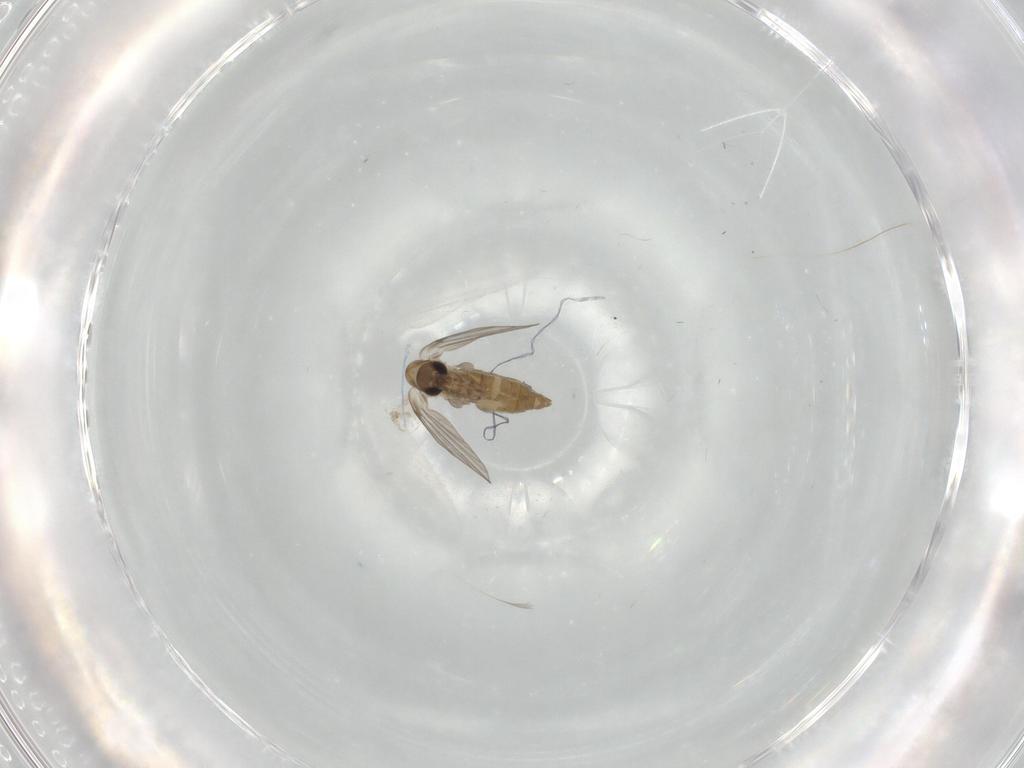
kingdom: Animalia
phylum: Arthropoda
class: Insecta
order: Diptera
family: Psychodidae
